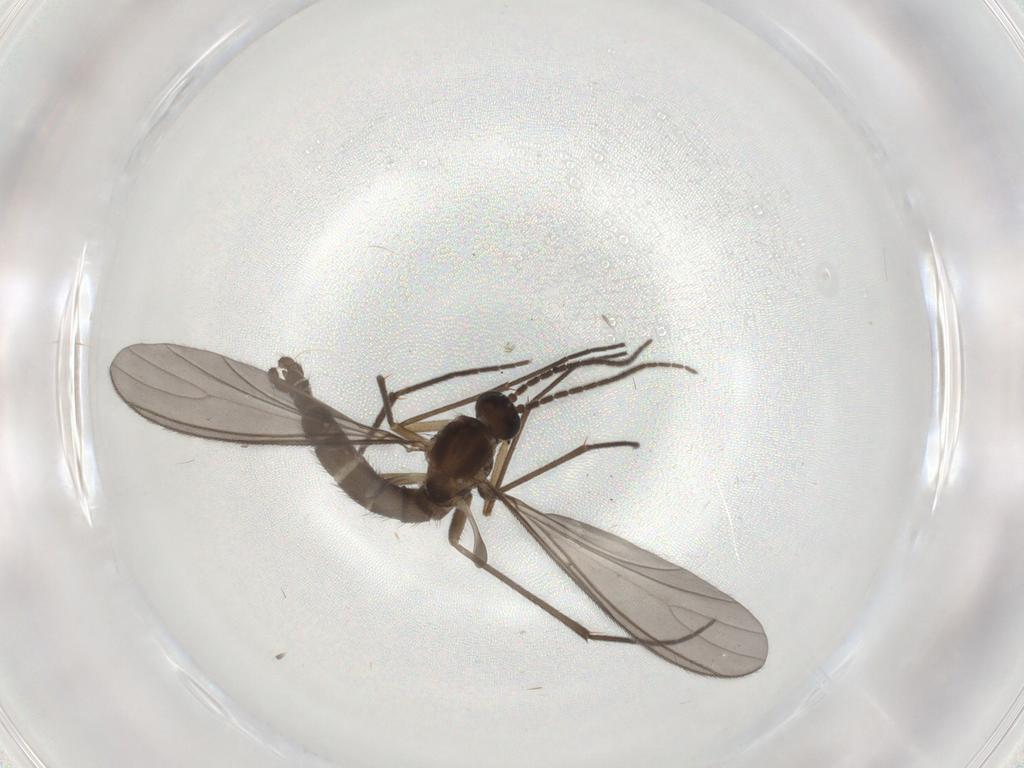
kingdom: Animalia
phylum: Arthropoda
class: Insecta
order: Diptera
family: Sciaridae
